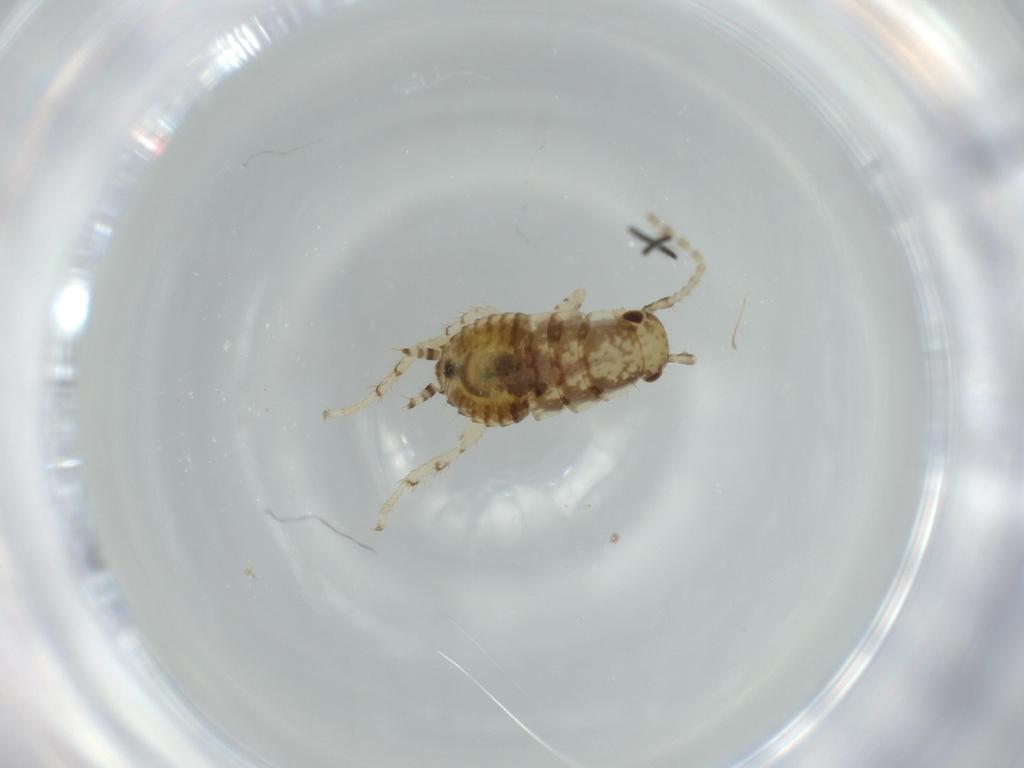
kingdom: Animalia
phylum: Arthropoda
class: Insecta
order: Blattodea
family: Ectobiidae
